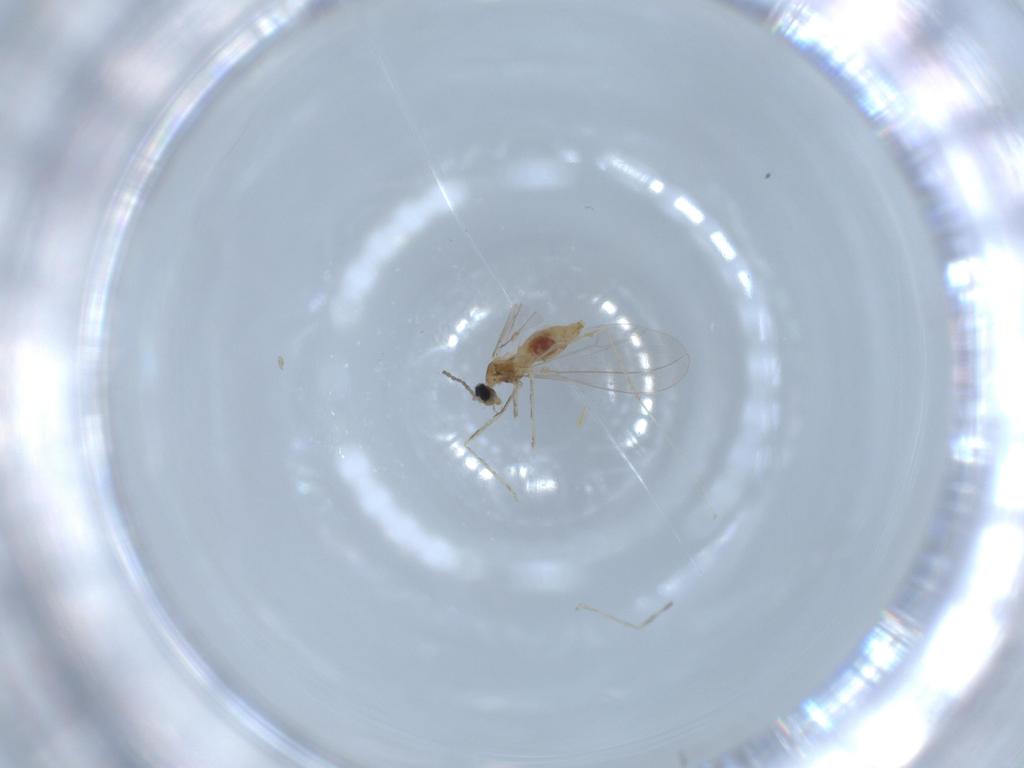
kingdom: Animalia
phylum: Arthropoda
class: Insecta
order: Diptera
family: Cecidomyiidae
